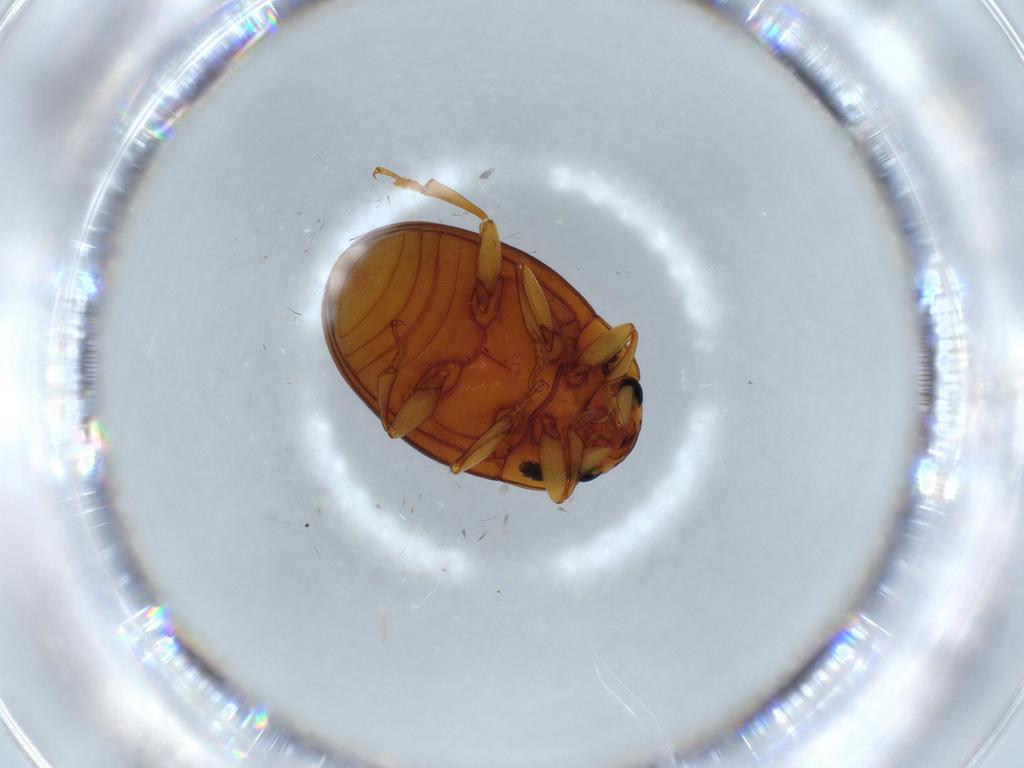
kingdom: Animalia
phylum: Arthropoda
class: Insecta
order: Coleoptera
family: Erotylidae
